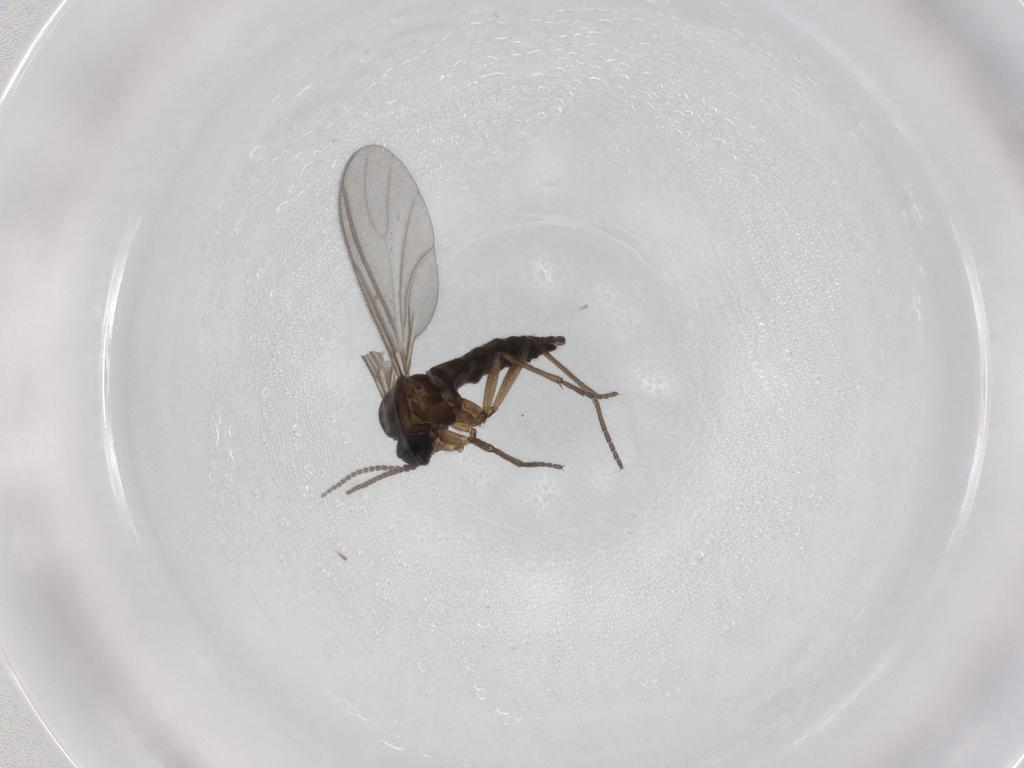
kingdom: Animalia
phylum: Arthropoda
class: Insecta
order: Diptera
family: Sciaridae
